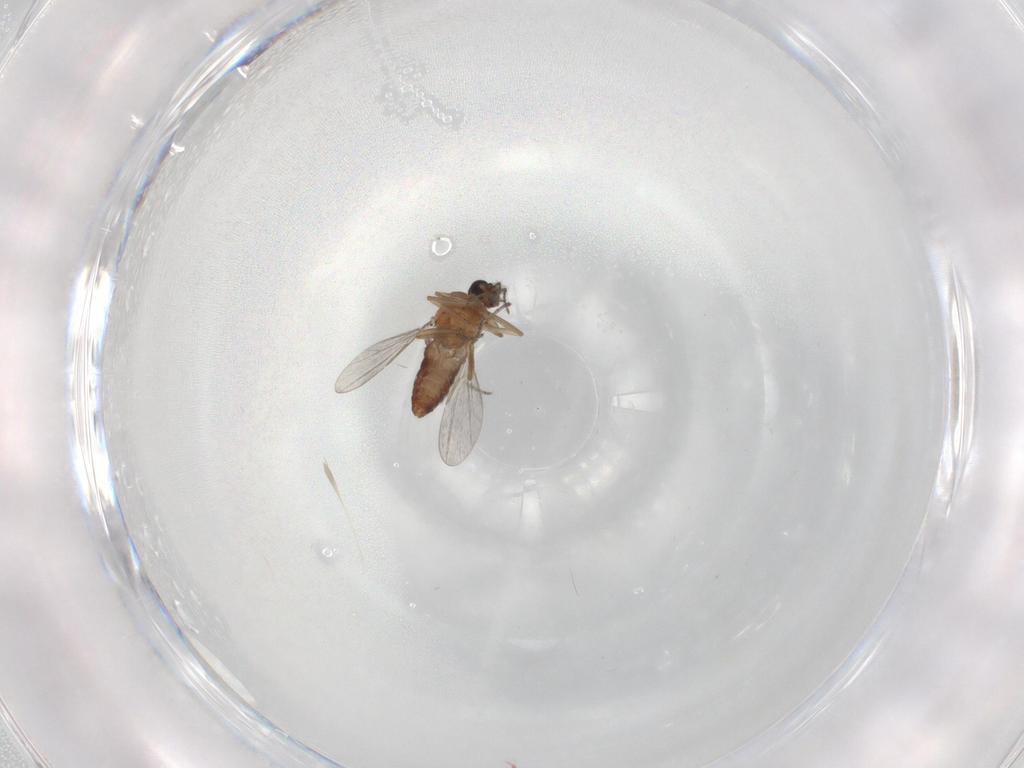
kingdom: Animalia
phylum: Arthropoda
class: Insecta
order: Diptera
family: Ceratopogonidae
